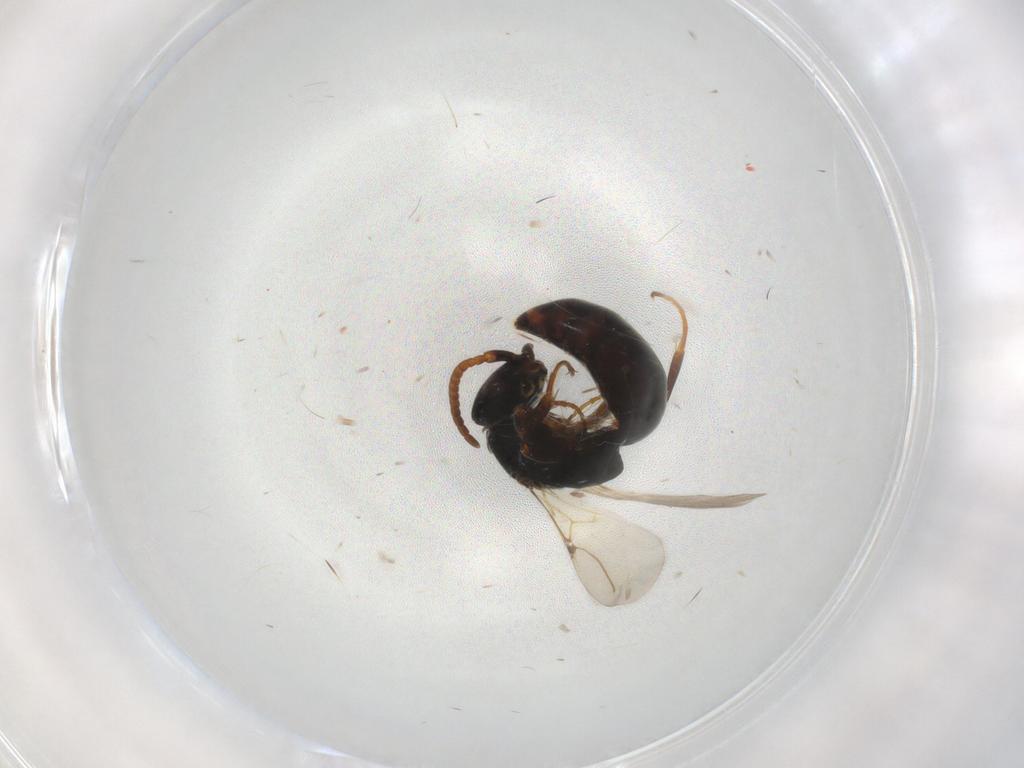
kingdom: Animalia
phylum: Arthropoda
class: Insecta
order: Hymenoptera
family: Bethylidae
